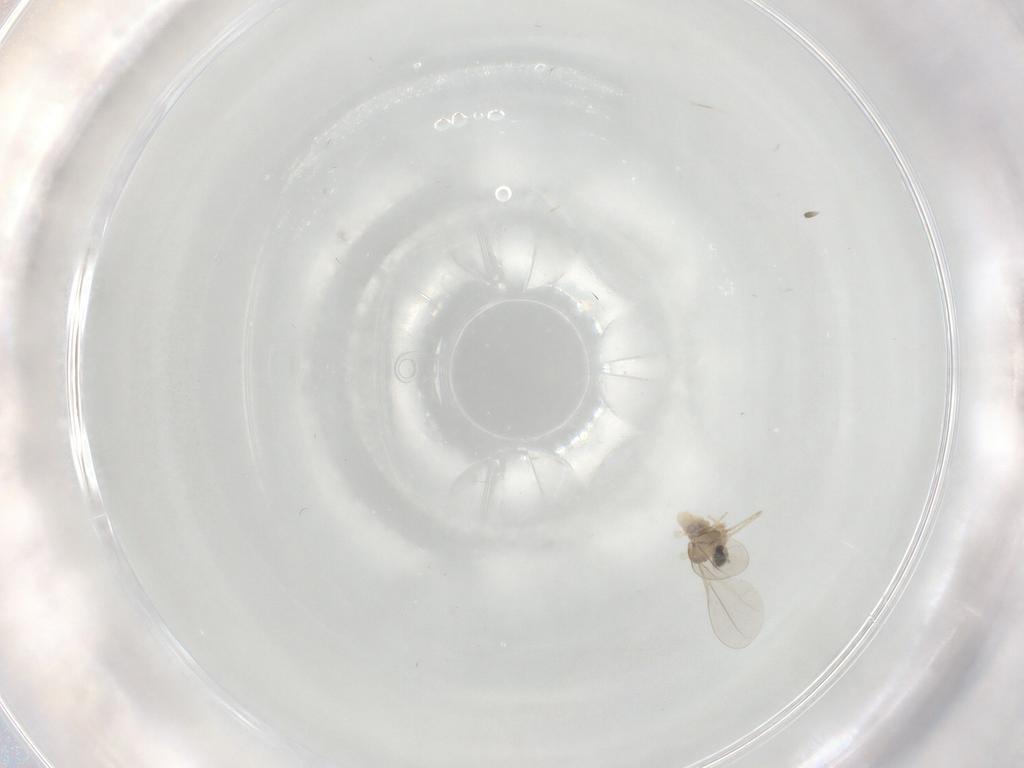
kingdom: Animalia
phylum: Arthropoda
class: Insecta
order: Diptera
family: Cecidomyiidae
